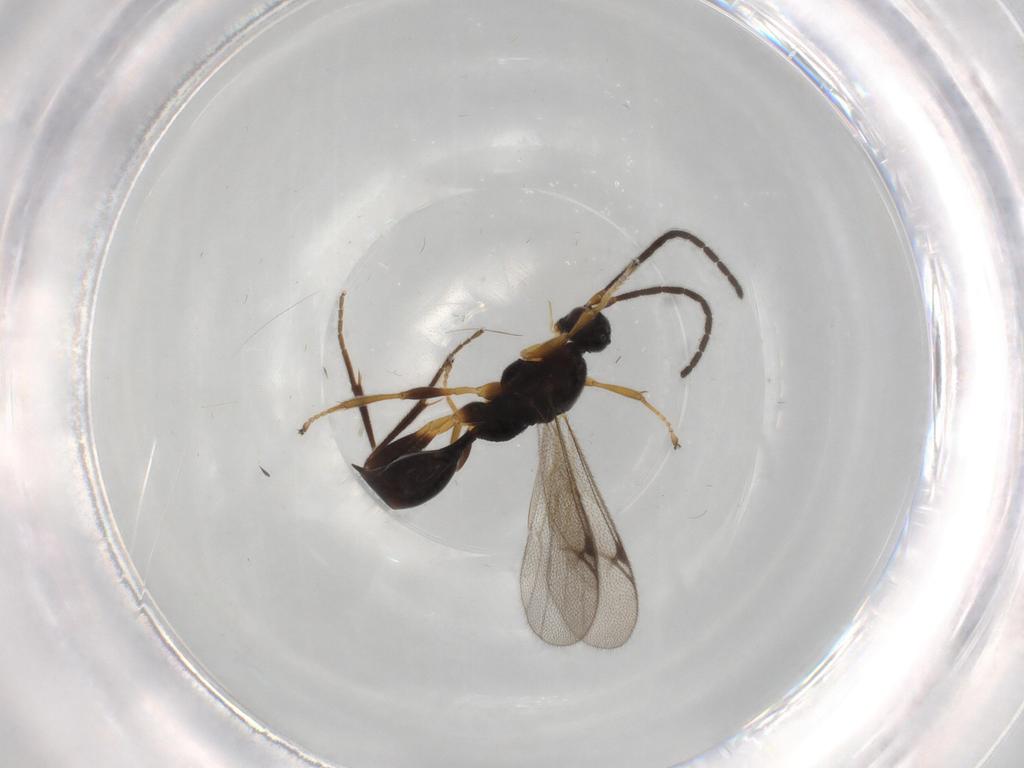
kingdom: Animalia
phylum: Arthropoda
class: Insecta
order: Hymenoptera
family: Proctotrupidae
